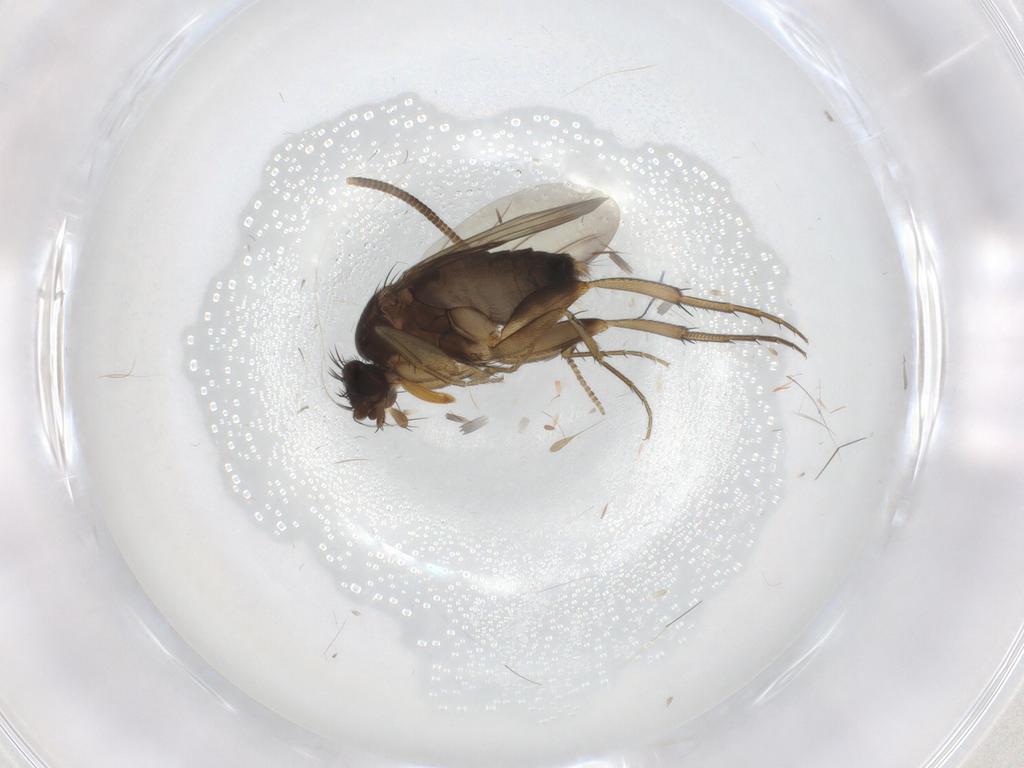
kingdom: Animalia
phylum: Arthropoda
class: Insecta
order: Diptera
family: Phoridae
